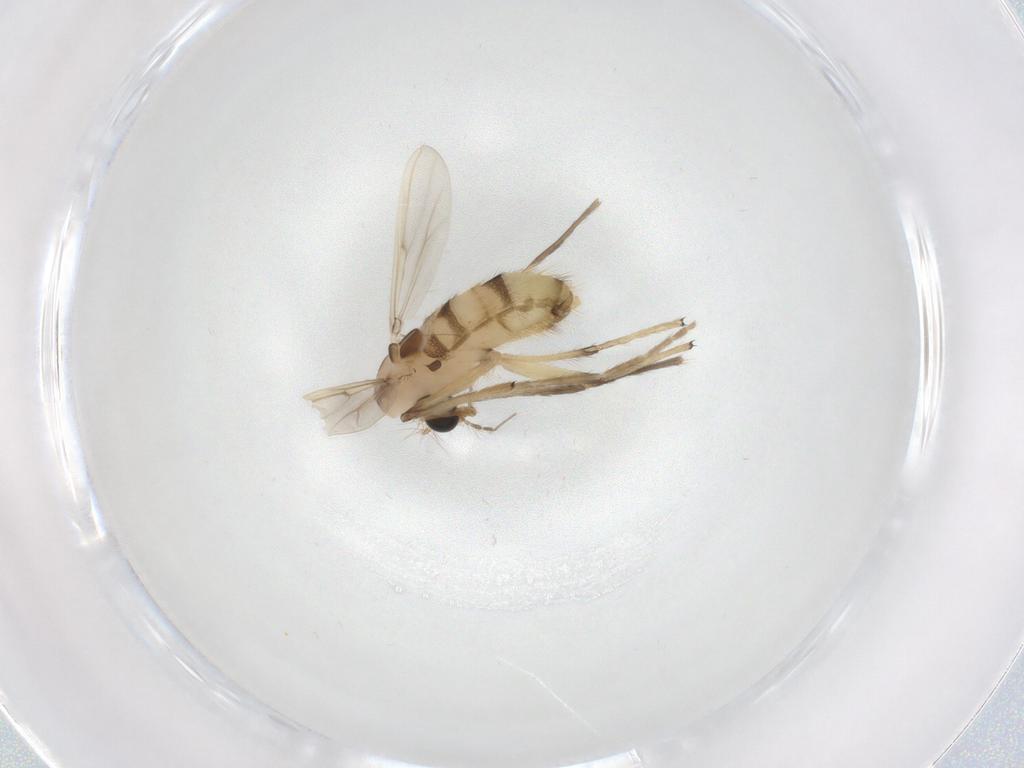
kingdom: Animalia
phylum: Arthropoda
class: Insecta
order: Diptera
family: Chironomidae
